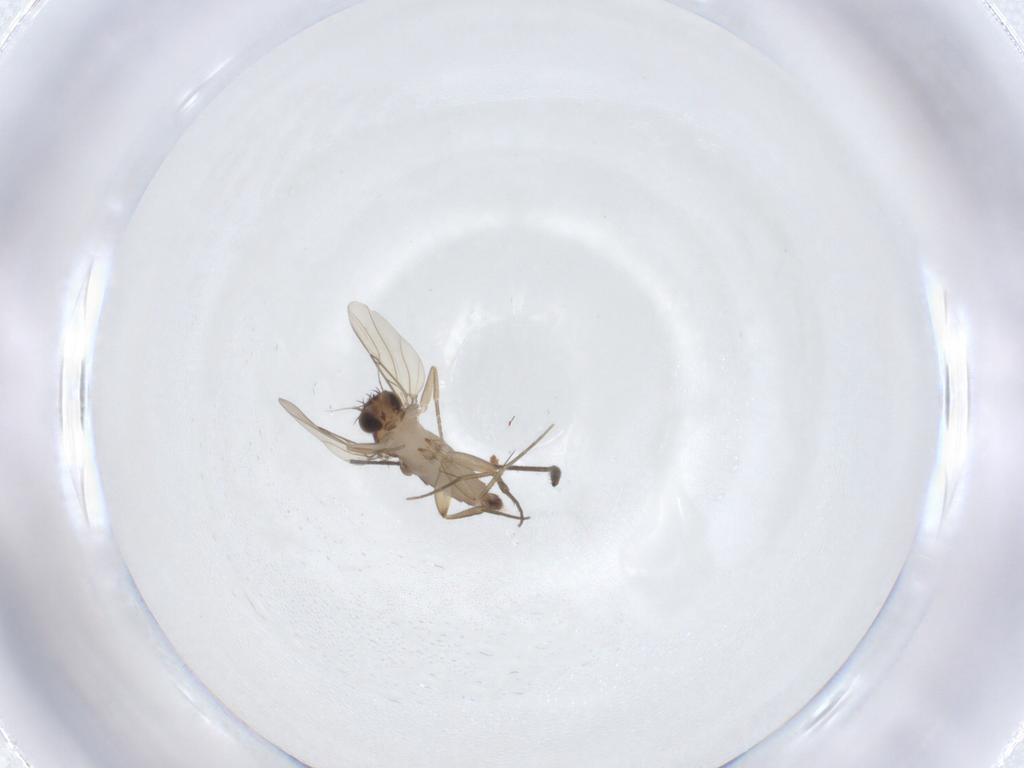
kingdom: Animalia
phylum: Arthropoda
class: Insecta
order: Diptera
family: Phoridae
